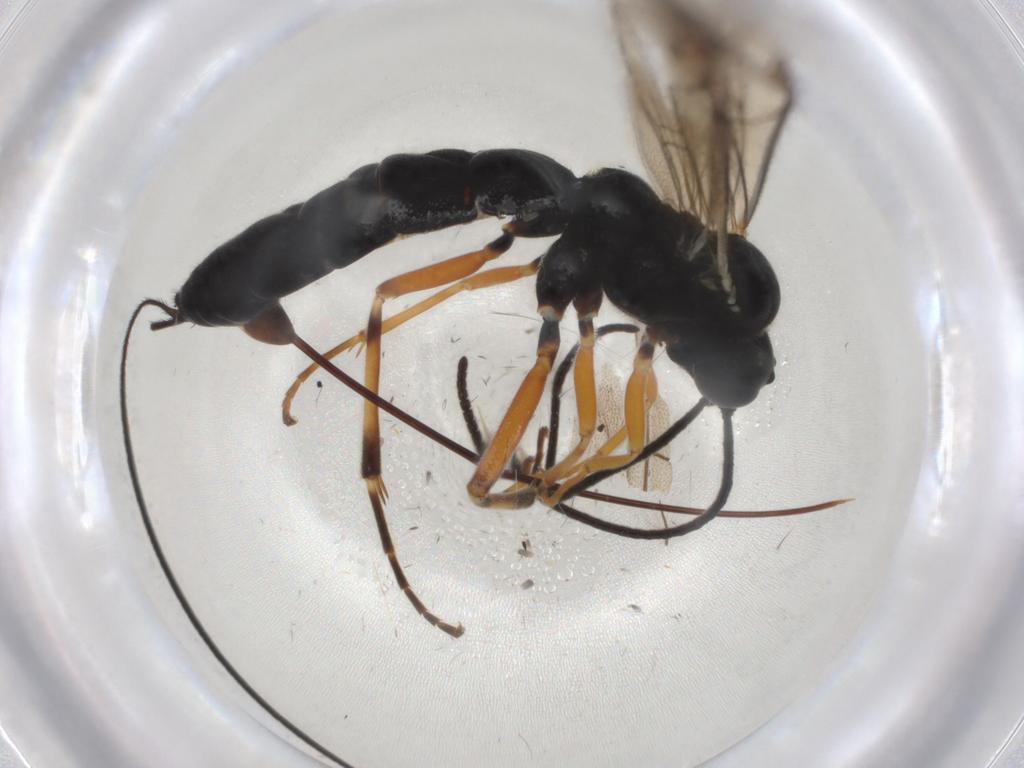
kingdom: Animalia
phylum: Arthropoda
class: Insecta
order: Hymenoptera
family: Ichneumonidae
